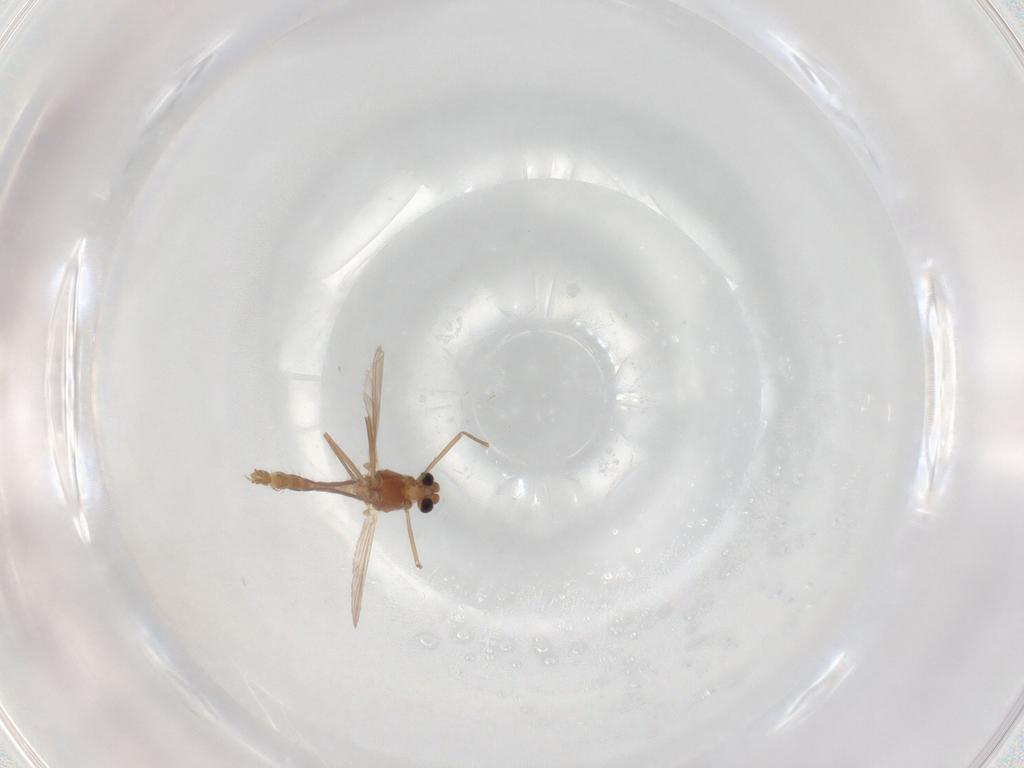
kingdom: Animalia
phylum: Arthropoda
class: Insecta
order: Diptera
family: Chironomidae
